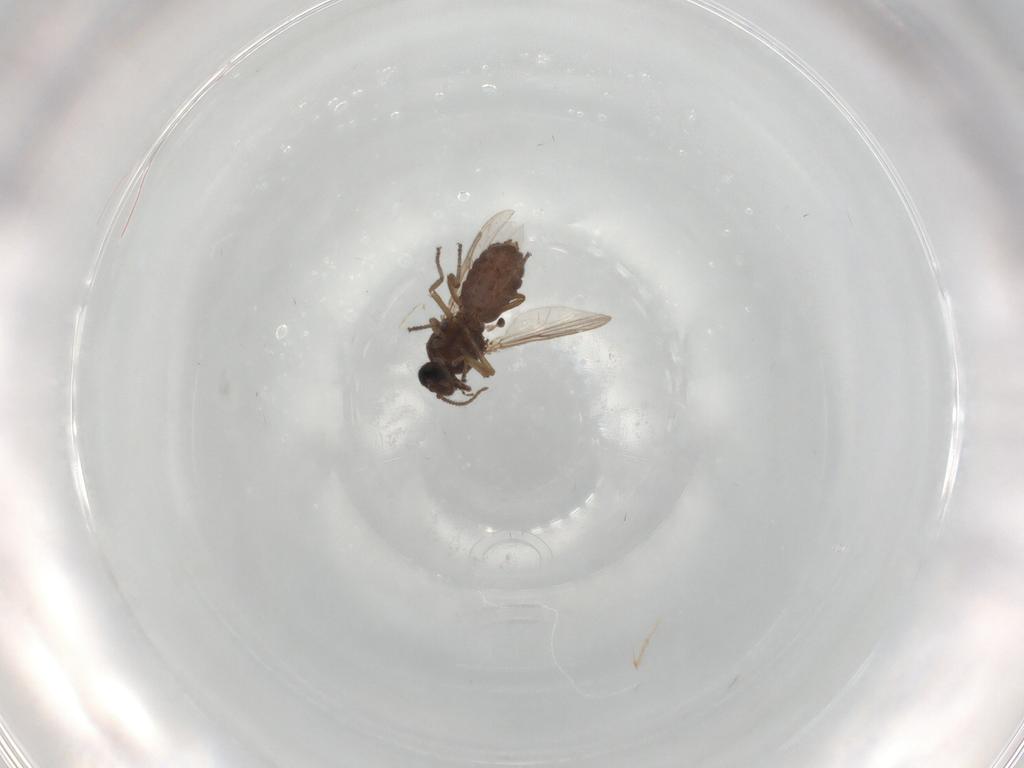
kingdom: Animalia
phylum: Arthropoda
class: Insecta
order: Diptera
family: Ceratopogonidae
